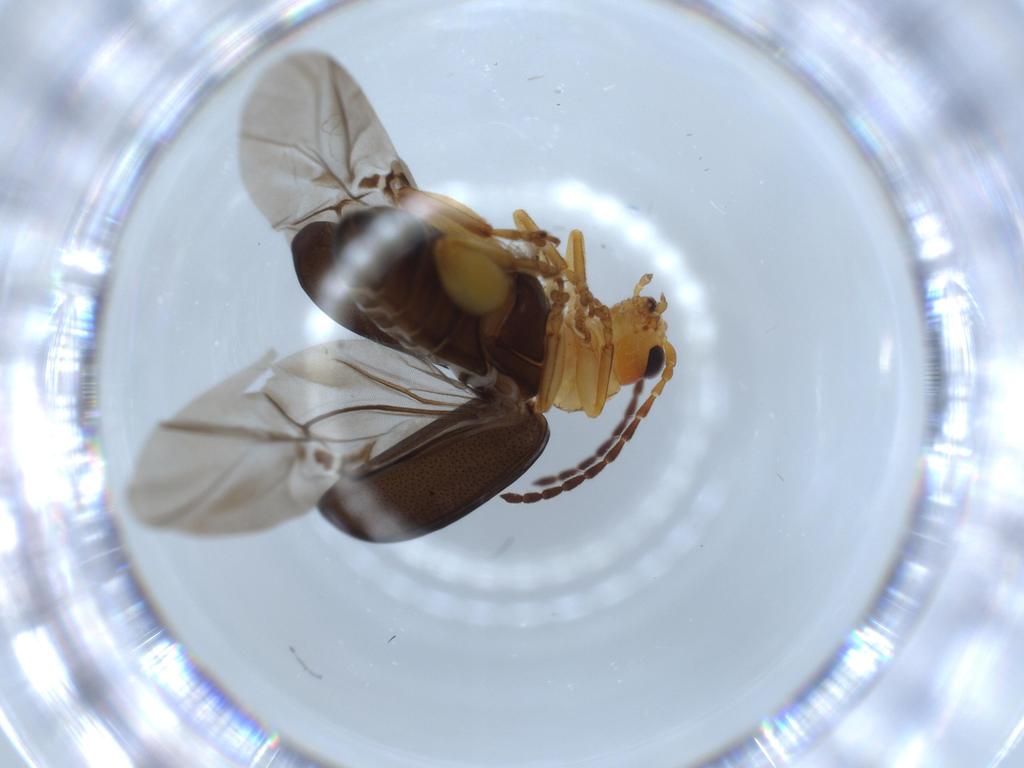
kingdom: Animalia
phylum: Arthropoda
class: Insecta
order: Coleoptera
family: Chrysomelidae
